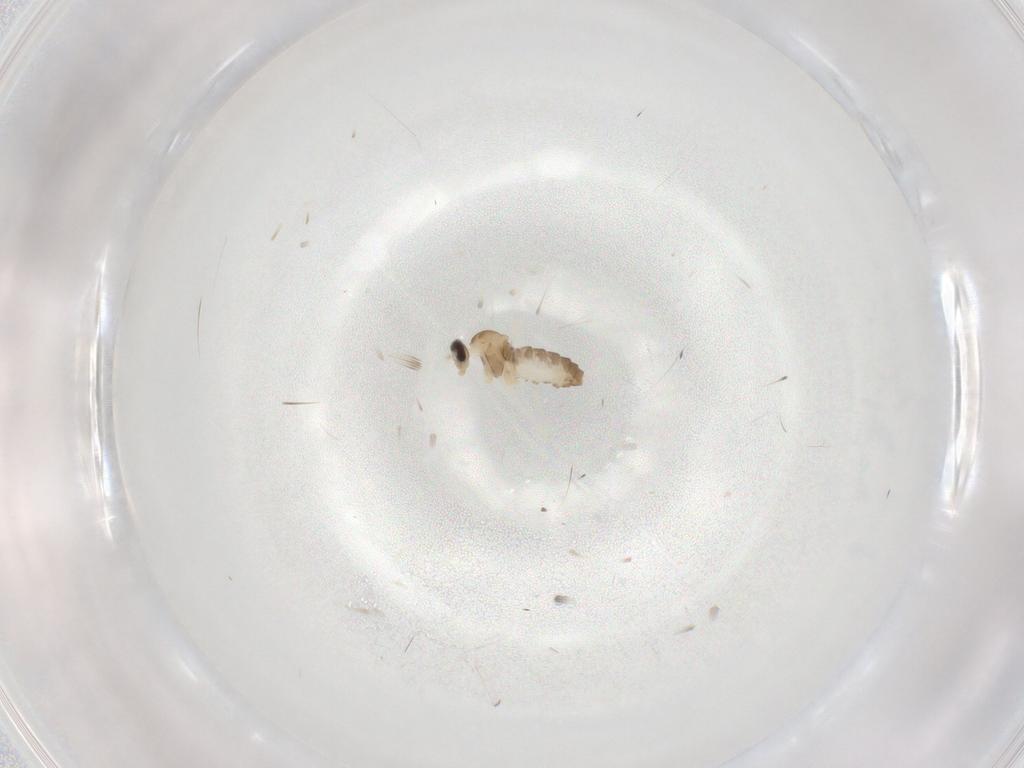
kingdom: Animalia
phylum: Arthropoda
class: Insecta
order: Diptera
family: Cecidomyiidae
